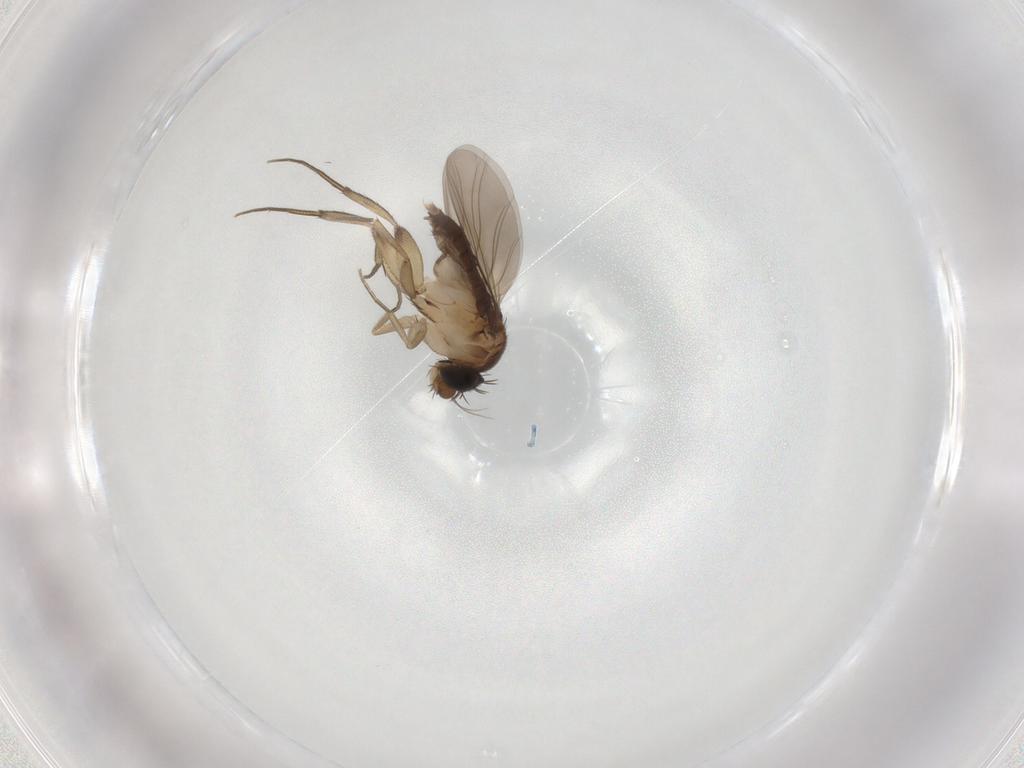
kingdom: Animalia
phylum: Arthropoda
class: Insecta
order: Diptera
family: Phoridae
